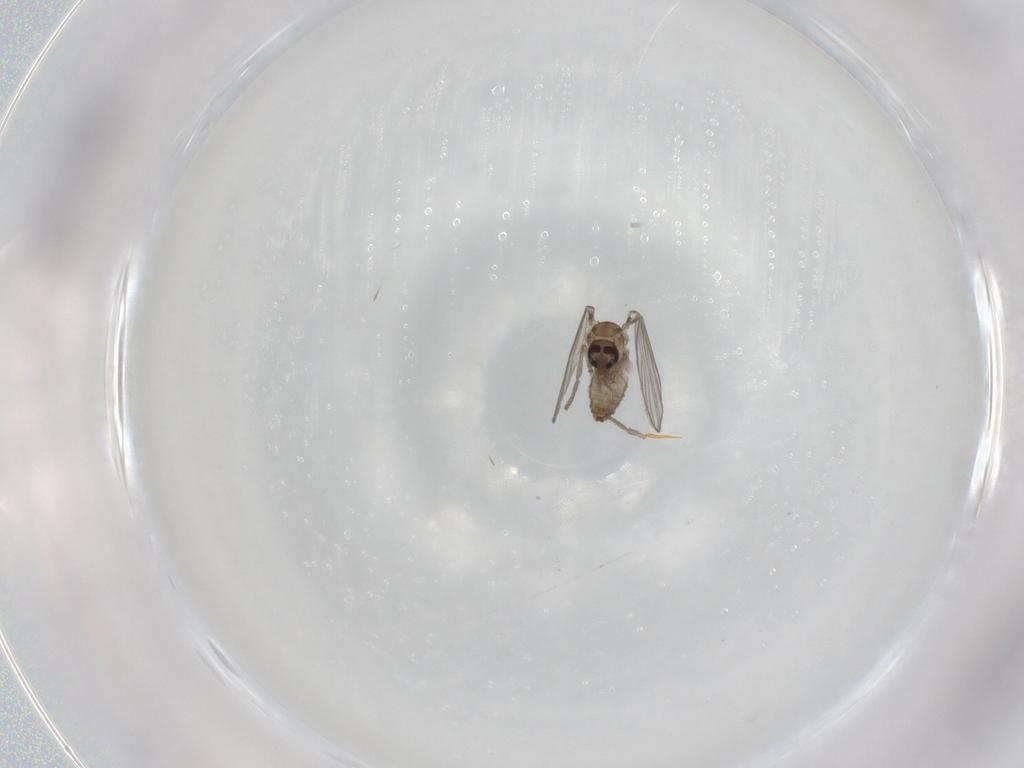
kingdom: Animalia
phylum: Arthropoda
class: Insecta
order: Diptera
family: Psychodidae
